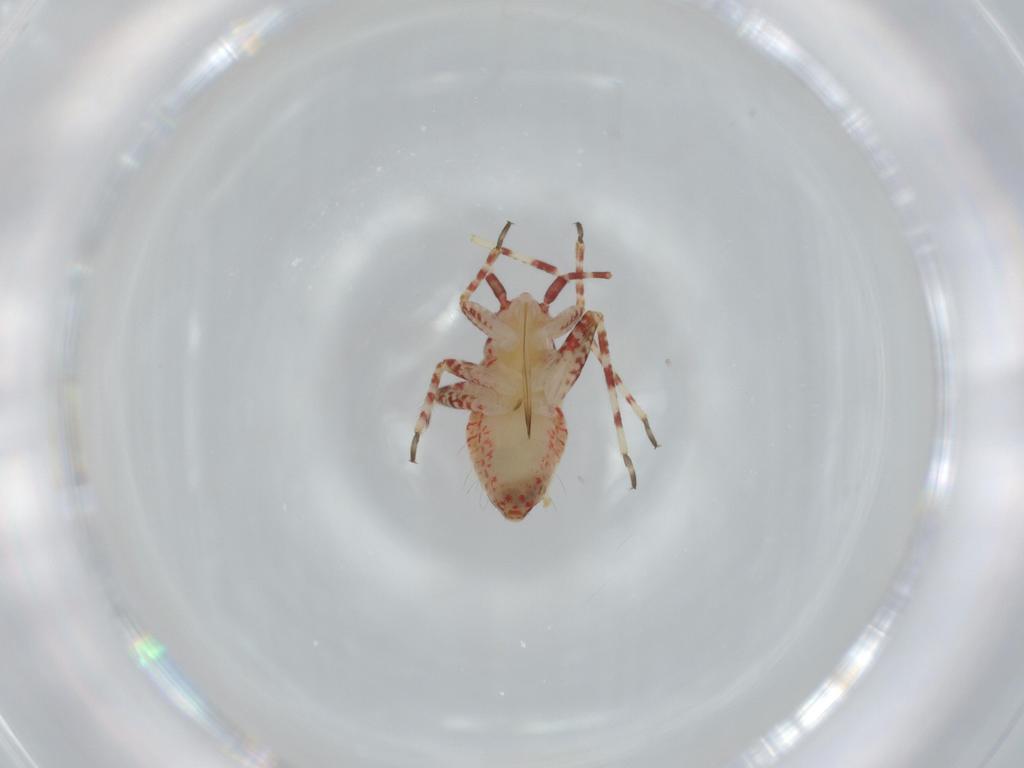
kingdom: Animalia
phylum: Arthropoda
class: Insecta
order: Hemiptera
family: Miridae
